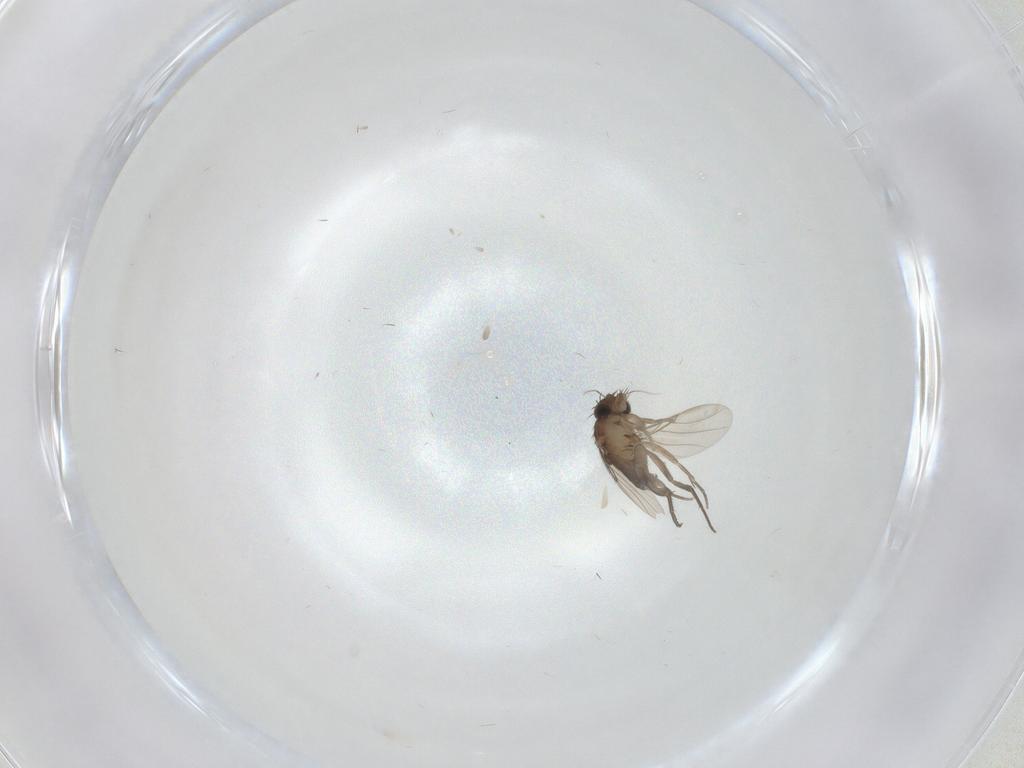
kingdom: Animalia
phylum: Arthropoda
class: Insecta
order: Diptera
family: Phoridae
